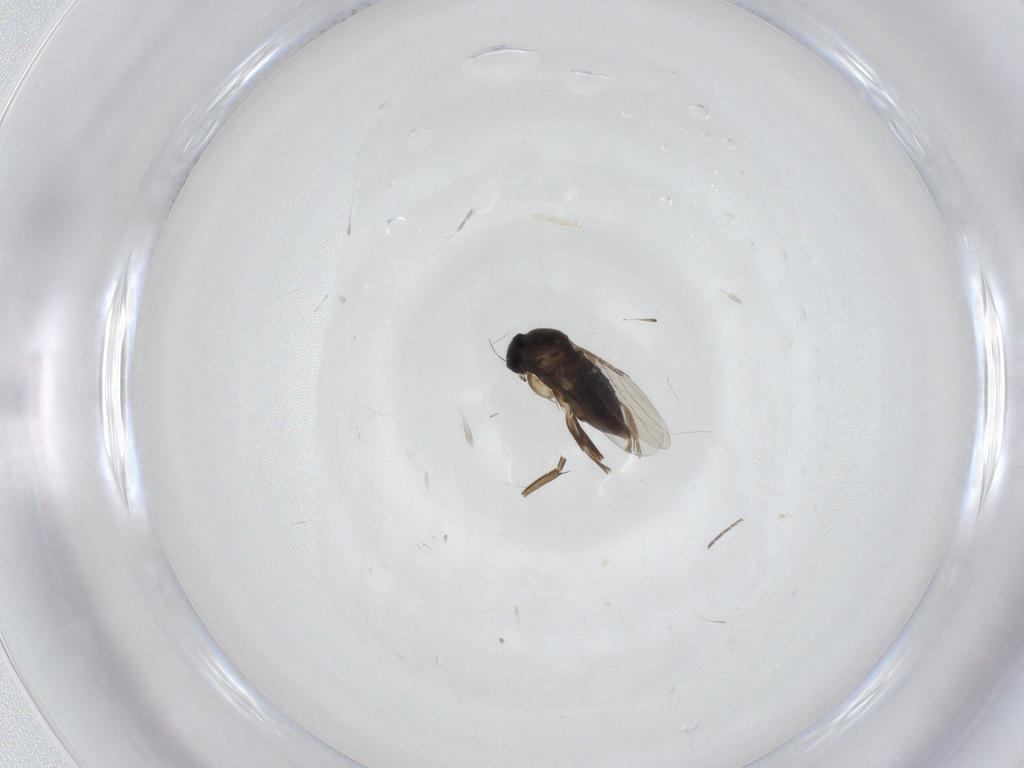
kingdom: Animalia
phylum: Arthropoda
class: Insecta
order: Diptera
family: Phoridae
